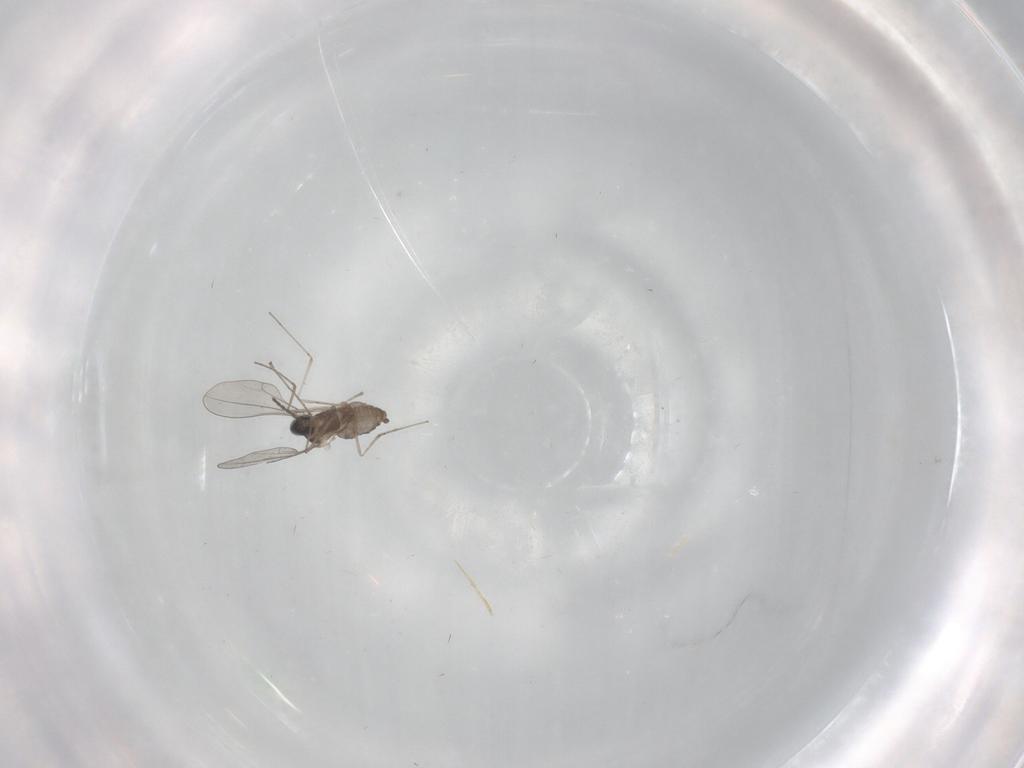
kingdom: Animalia
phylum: Arthropoda
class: Insecta
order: Diptera
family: Cecidomyiidae
